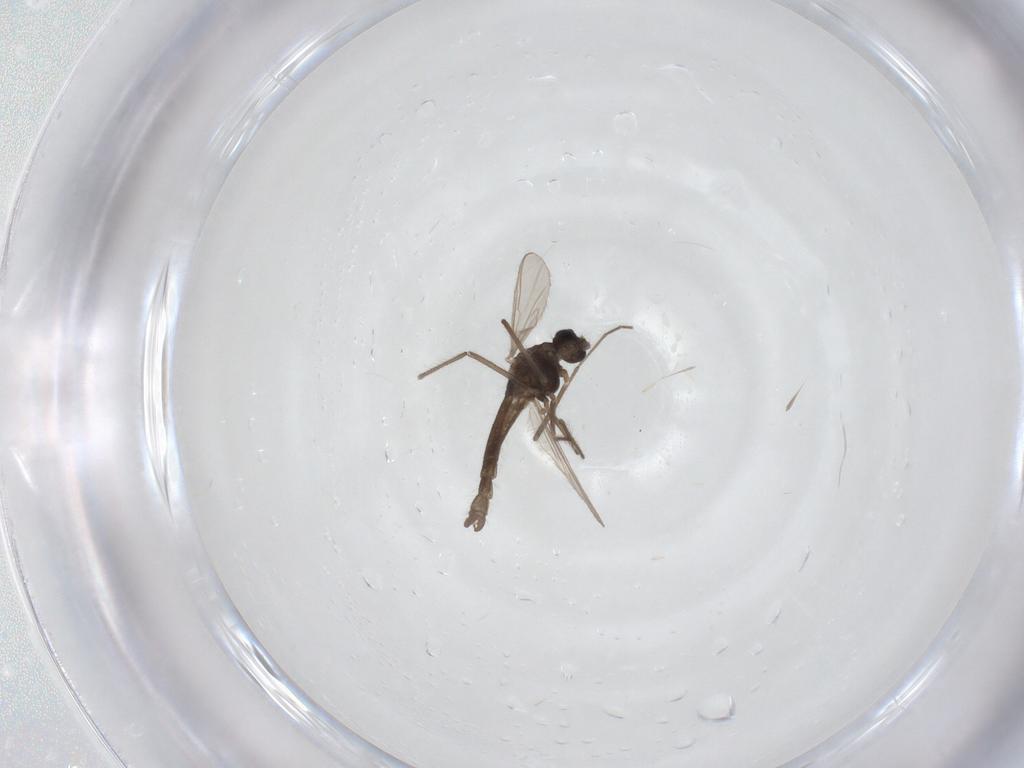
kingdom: Animalia
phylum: Arthropoda
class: Insecta
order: Diptera
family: Chironomidae
